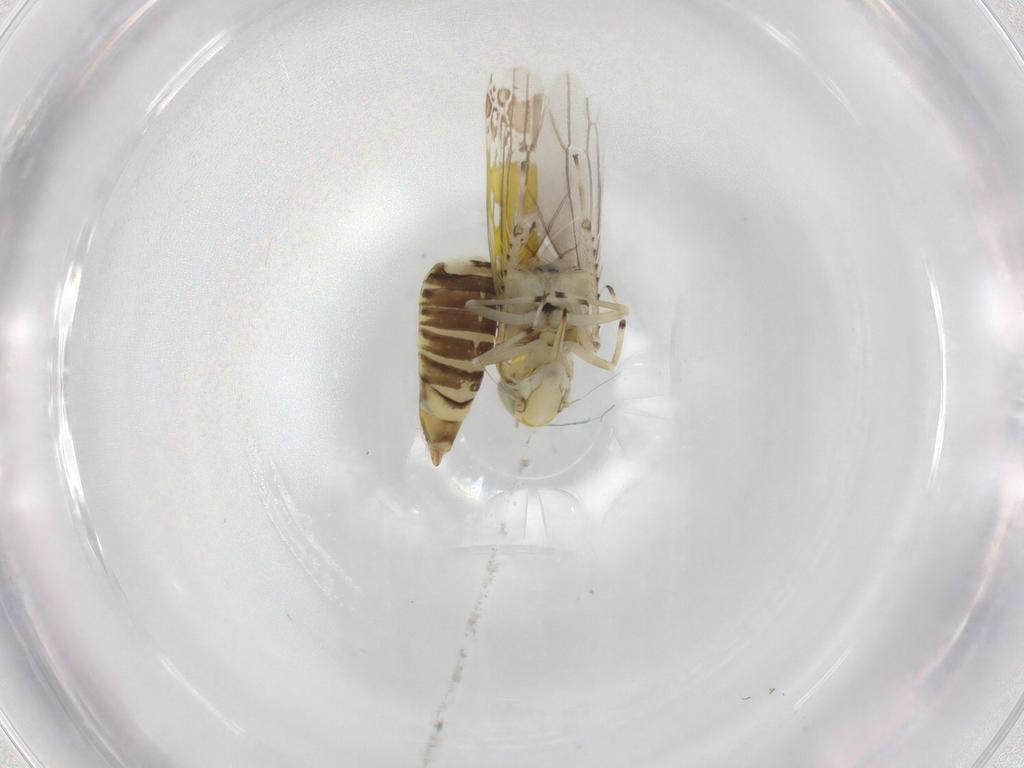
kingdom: Animalia
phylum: Arthropoda
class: Insecta
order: Hemiptera
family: Cicadellidae
